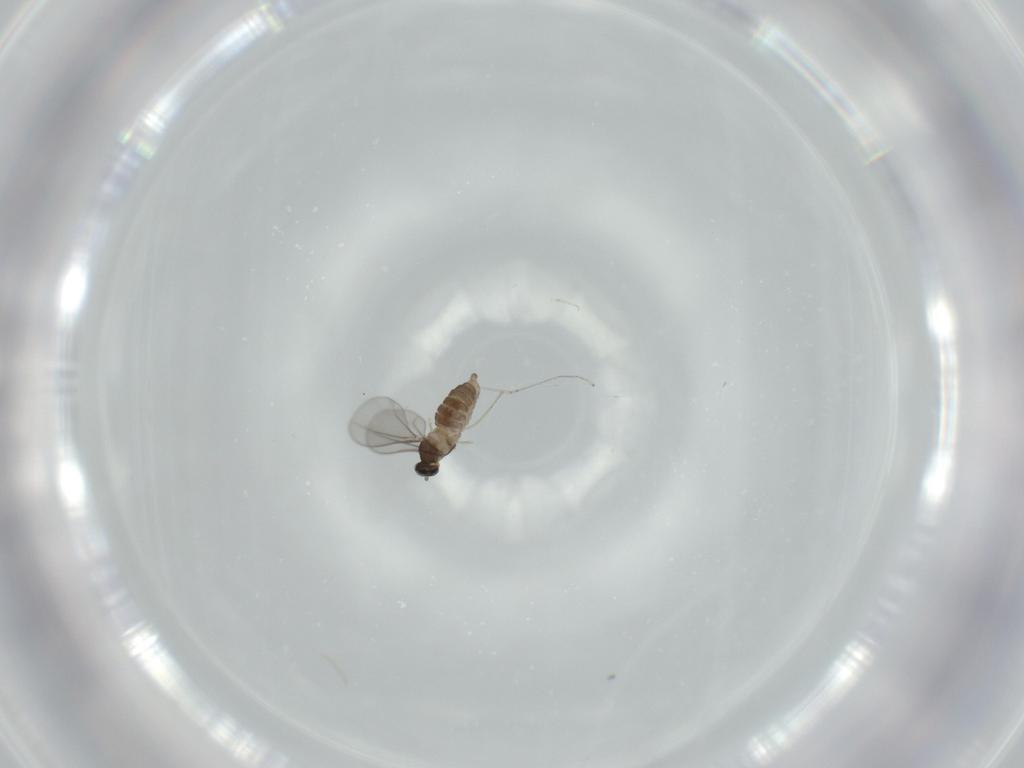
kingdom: Animalia
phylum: Arthropoda
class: Insecta
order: Diptera
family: Cecidomyiidae
